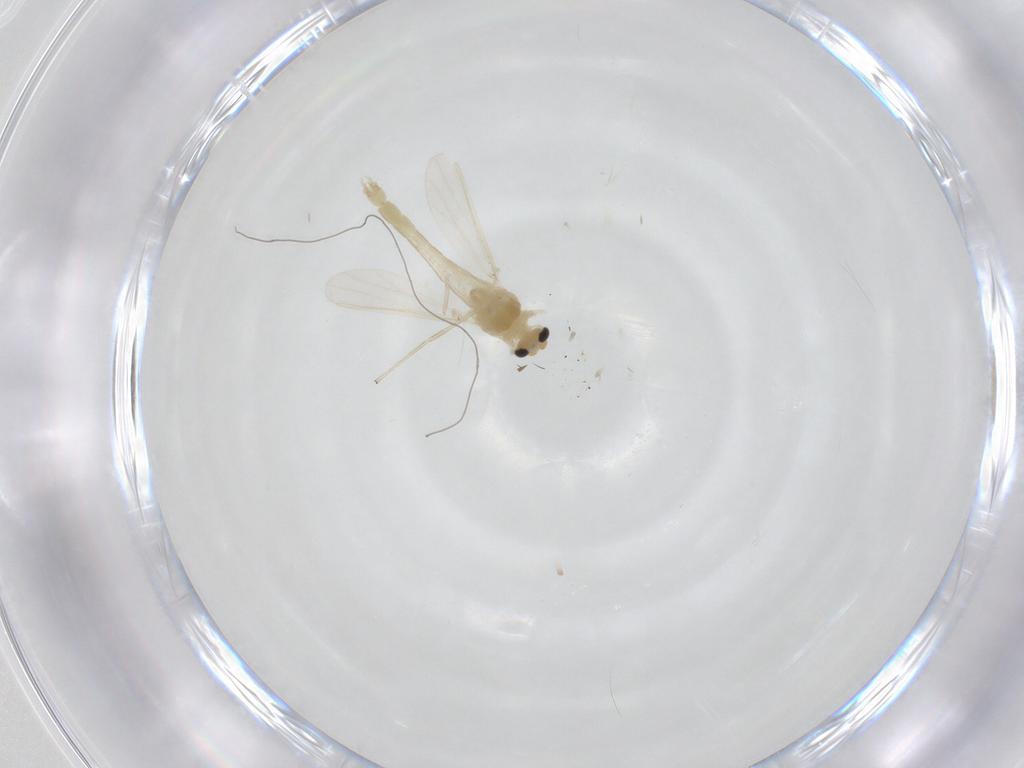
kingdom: Animalia
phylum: Arthropoda
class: Insecta
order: Diptera
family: Chironomidae
